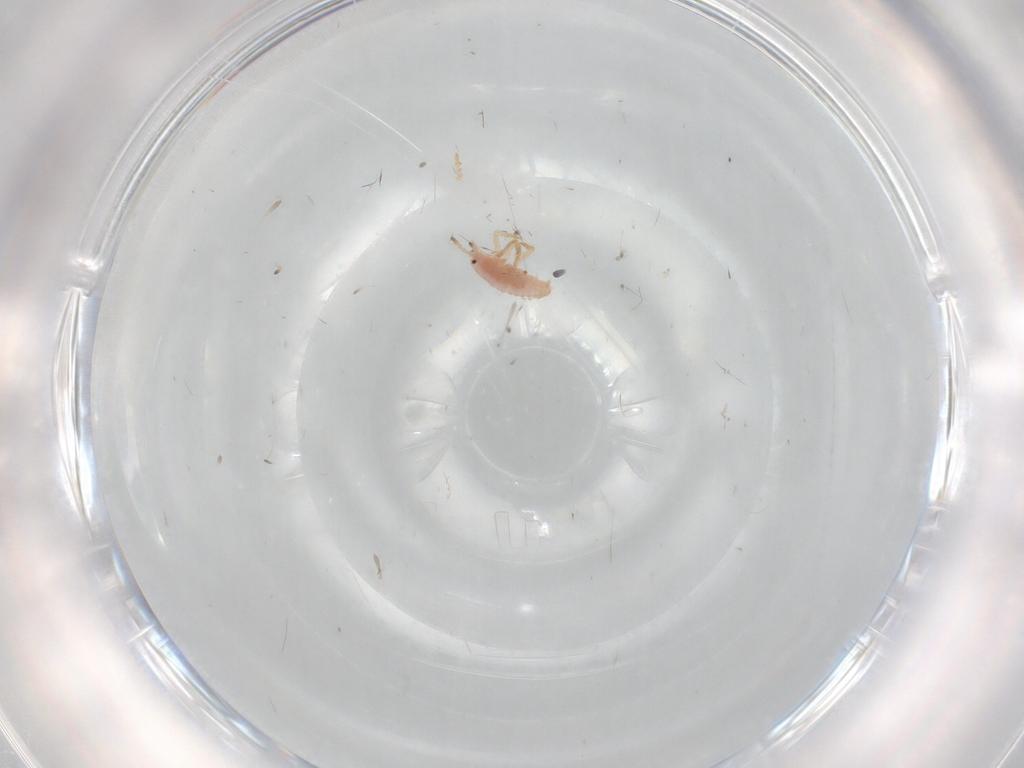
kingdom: Animalia
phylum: Arthropoda
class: Insecta
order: Hemiptera
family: Coccoidea_incertae_sedis
